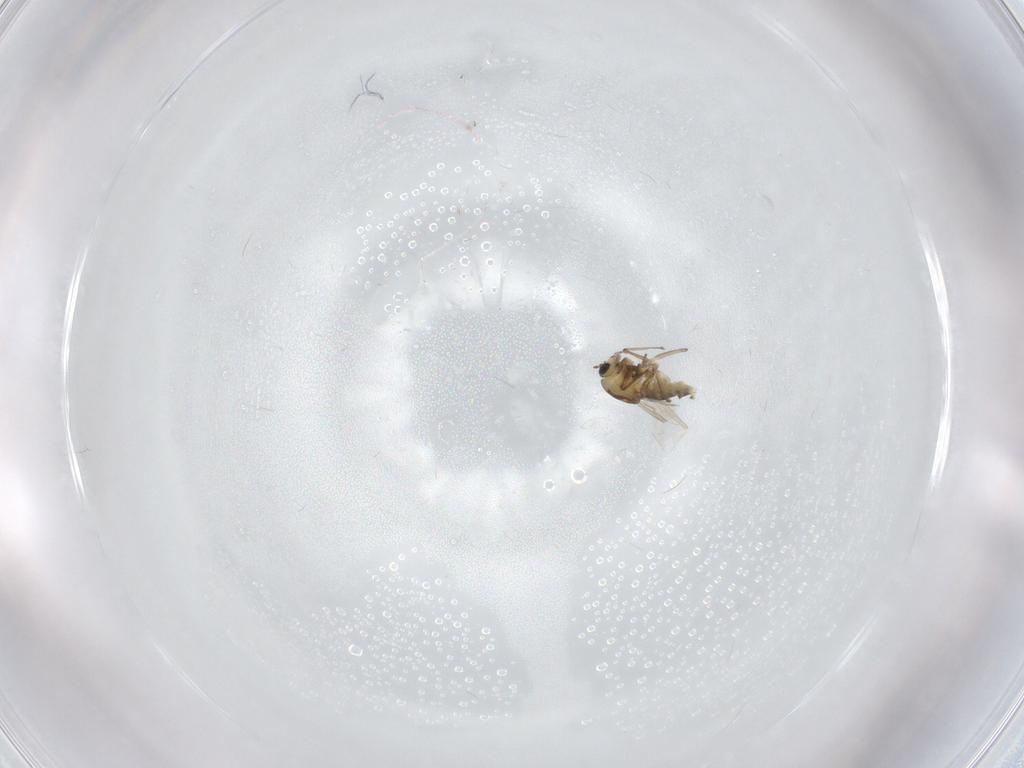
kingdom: Animalia
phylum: Arthropoda
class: Insecta
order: Diptera
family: Chironomidae
